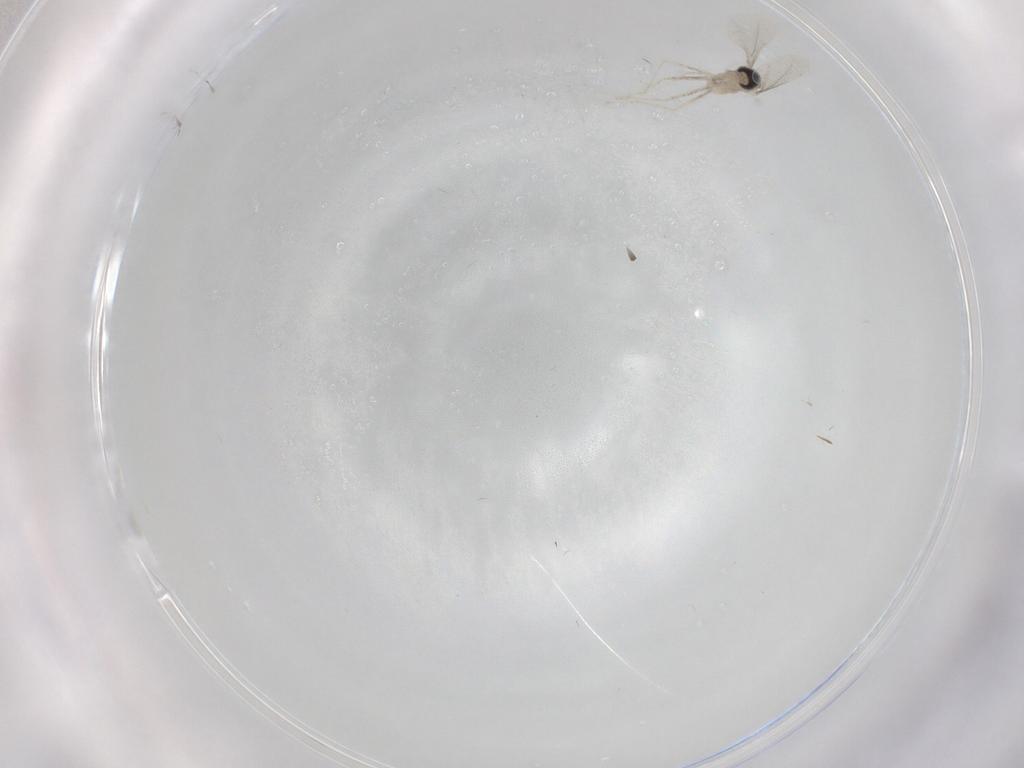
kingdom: Animalia
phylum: Arthropoda
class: Insecta
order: Diptera
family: Cecidomyiidae
